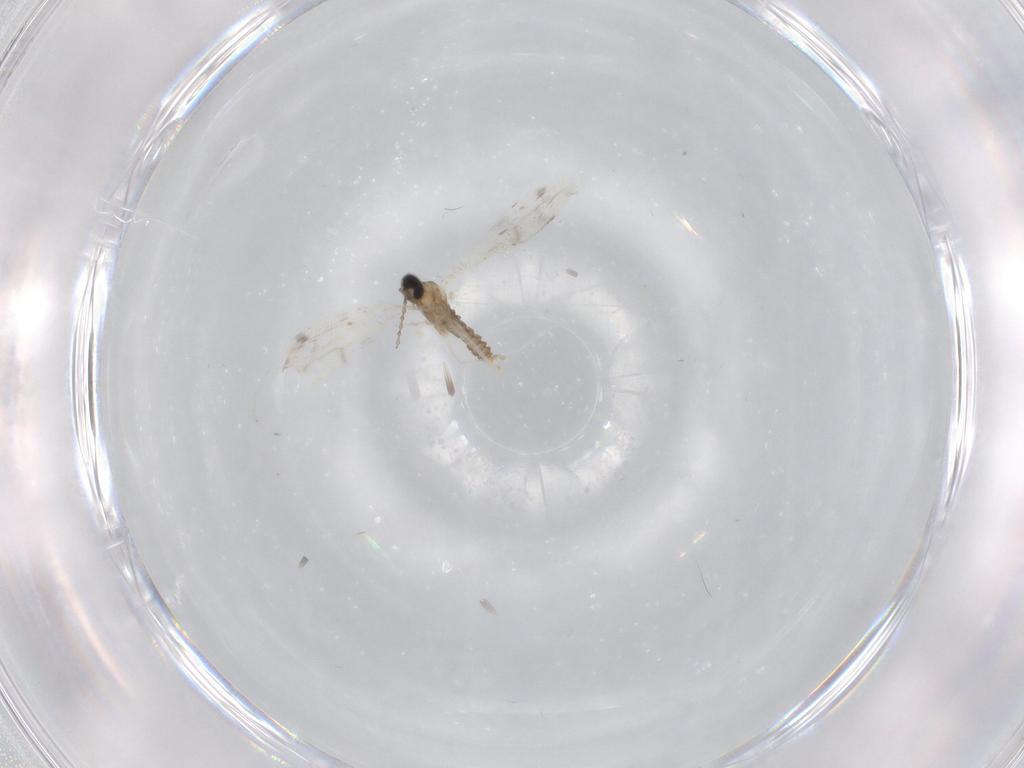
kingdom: Animalia
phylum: Arthropoda
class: Insecta
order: Diptera
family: Cecidomyiidae
